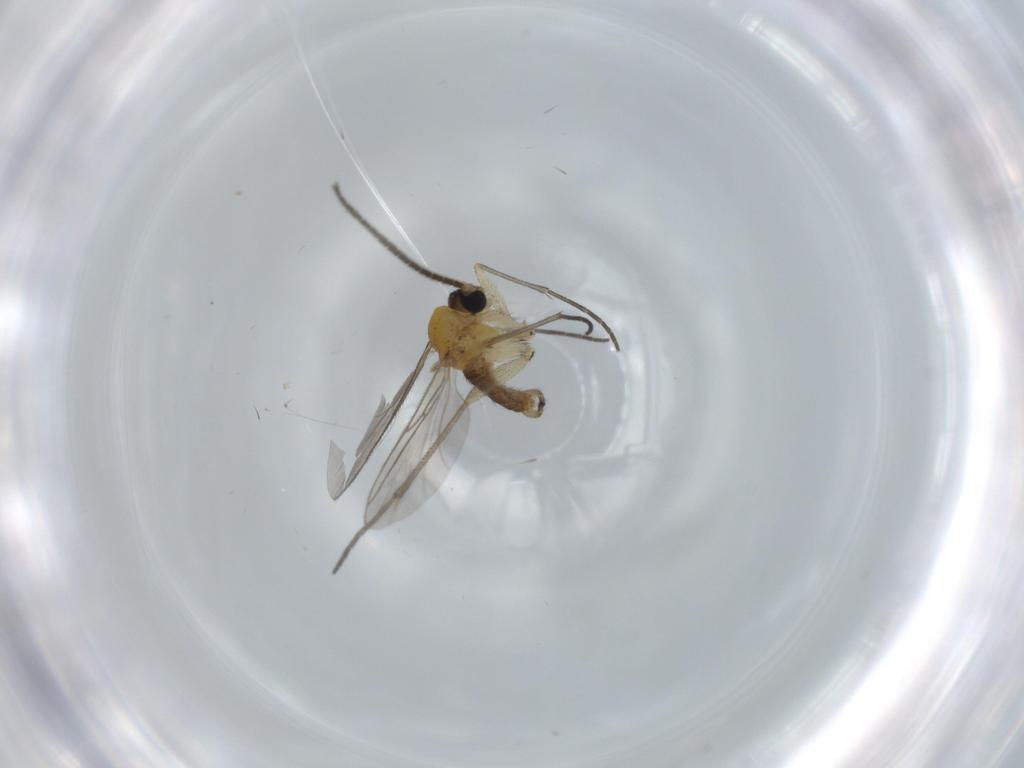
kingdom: Animalia
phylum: Arthropoda
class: Insecta
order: Diptera
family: Sciaridae
